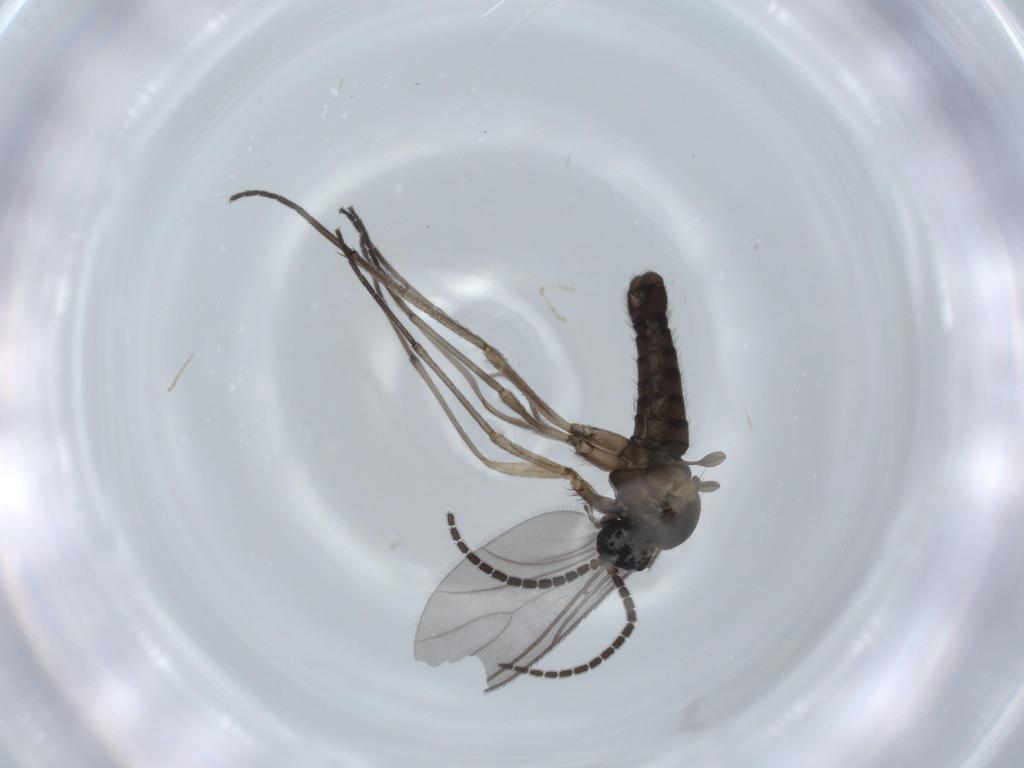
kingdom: Animalia
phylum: Arthropoda
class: Insecta
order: Diptera
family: Sciaridae
